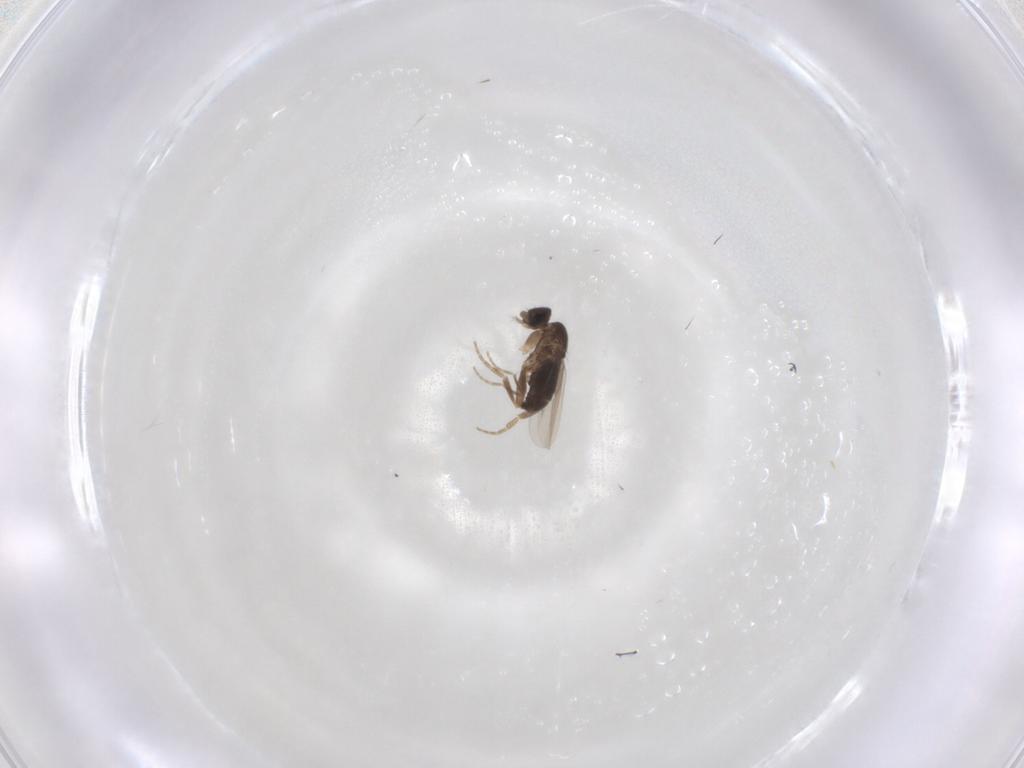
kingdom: Animalia
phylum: Arthropoda
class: Insecta
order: Diptera
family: Phoridae
